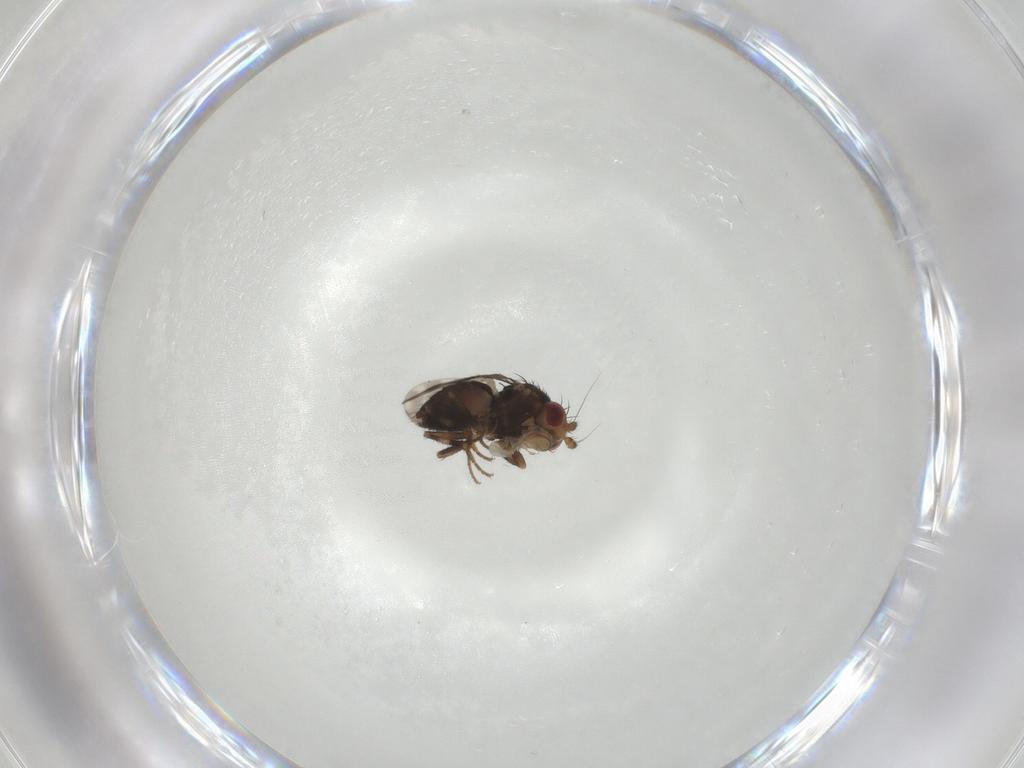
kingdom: Animalia
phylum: Arthropoda
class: Insecta
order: Diptera
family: Sphaeroceridae
